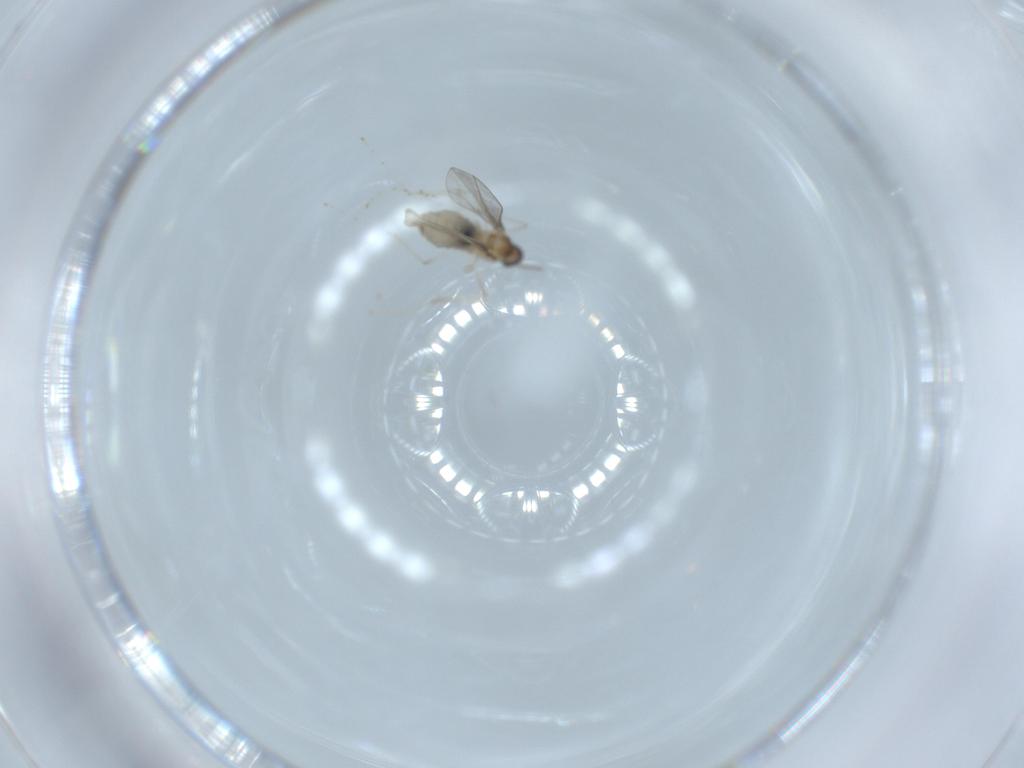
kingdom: Animalia
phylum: Arthropoda
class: Insecta
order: Diptera
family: Cecidomyiidae
